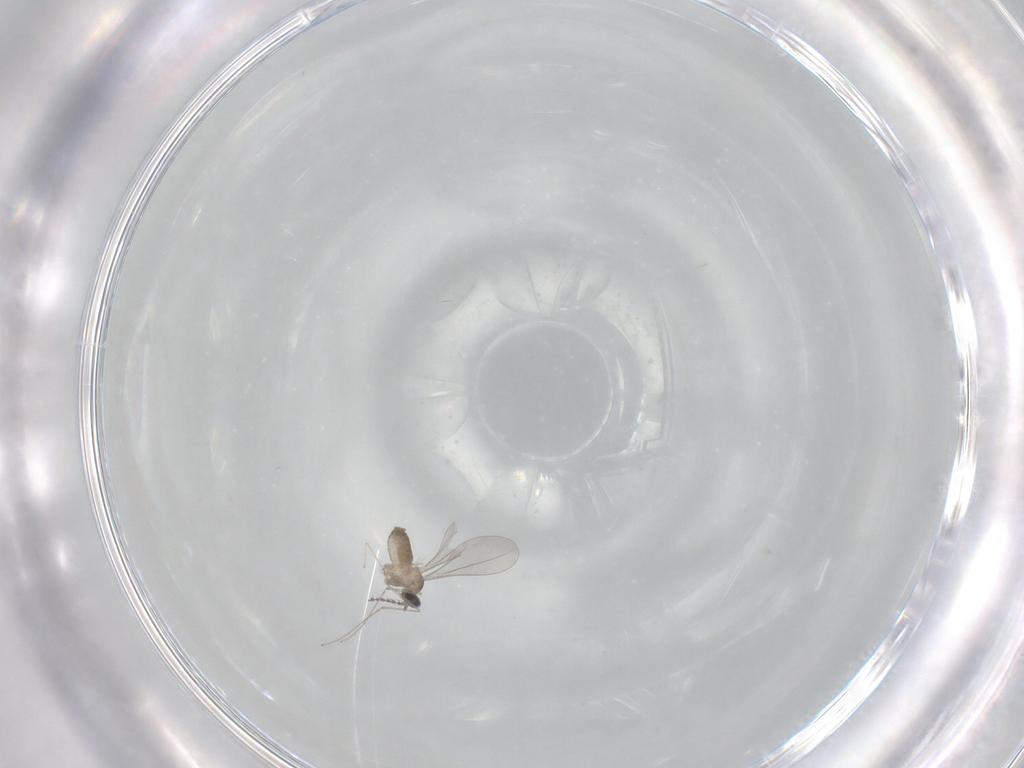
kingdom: Animalia
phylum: Arthropoda
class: Insecta
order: Diptera
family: Cecidomyiidae
